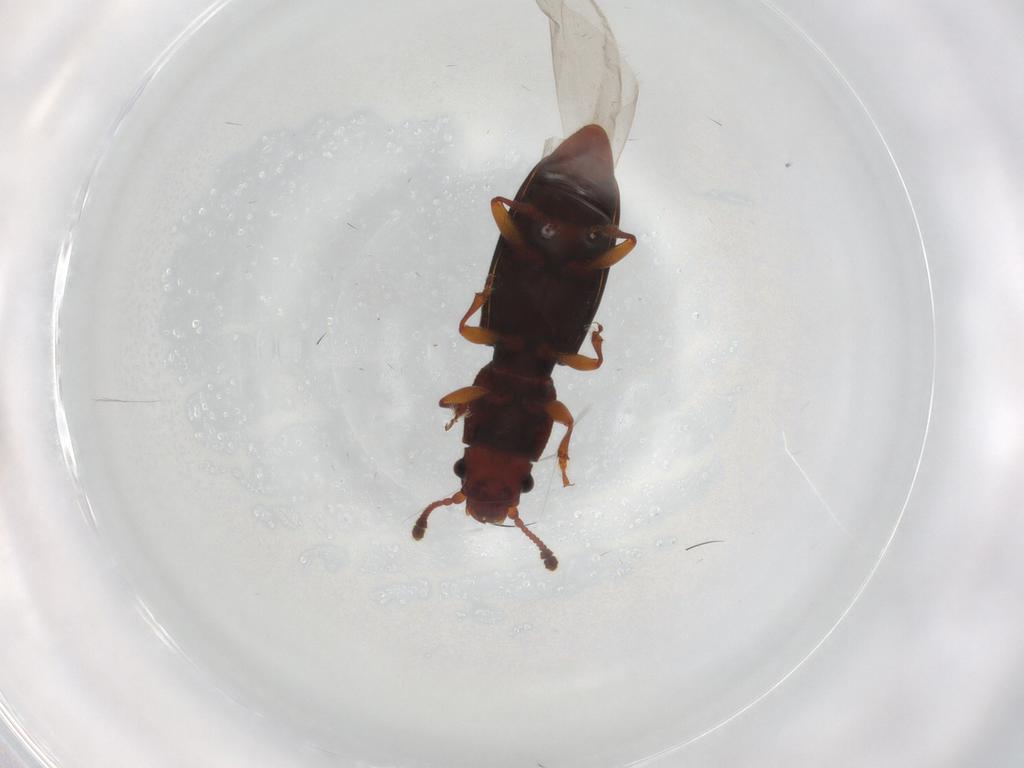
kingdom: Animalia
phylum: Arthropoda
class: Insecta
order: Coleoptera
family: Monotomidae
